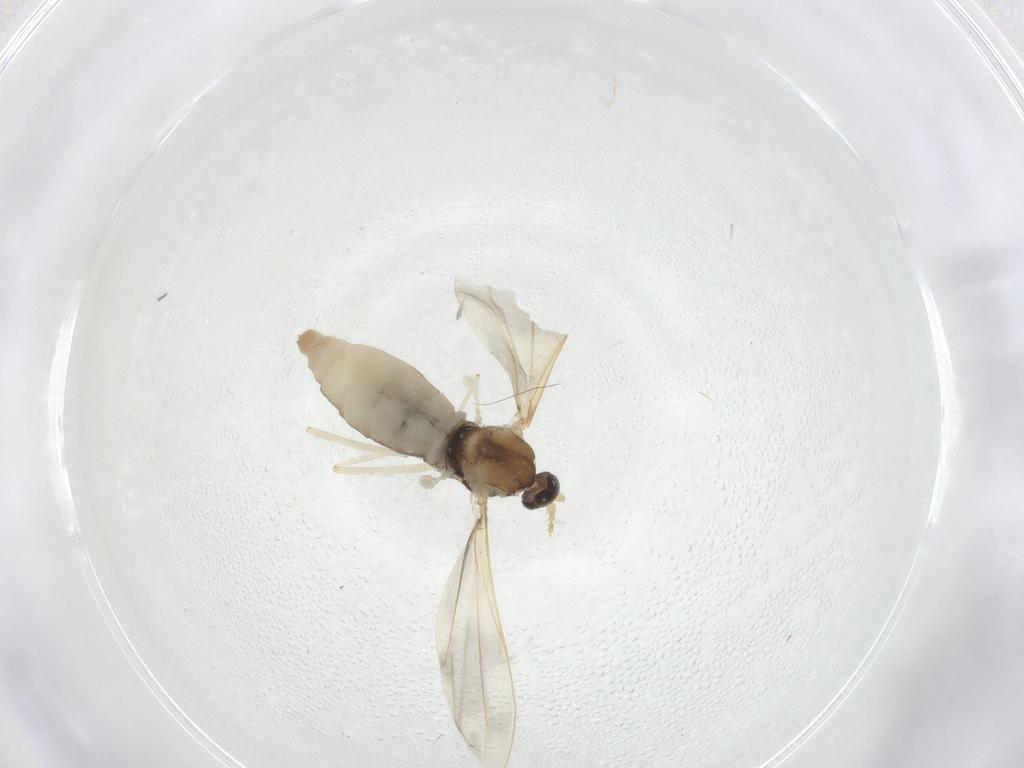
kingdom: Animalia
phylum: Arthropoda
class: Insecta
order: Diptera
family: Cecidomyiidae
